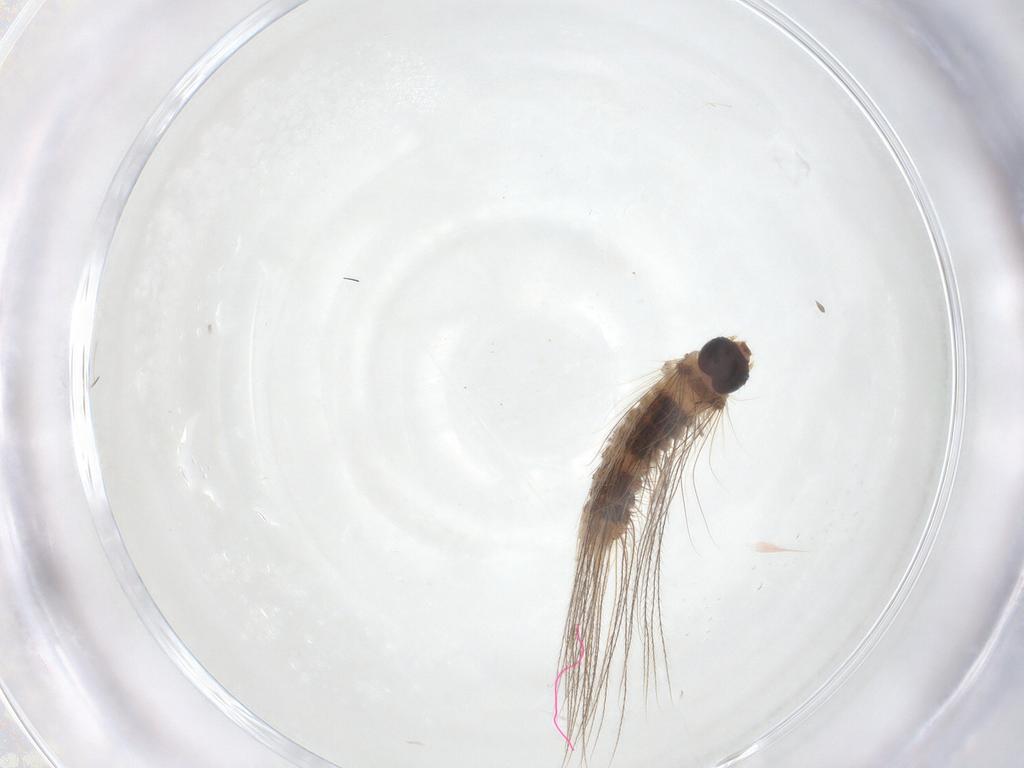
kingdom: Animalia
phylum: Arthropoda
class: Insecta
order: Lepidoptera
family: Erebidae
